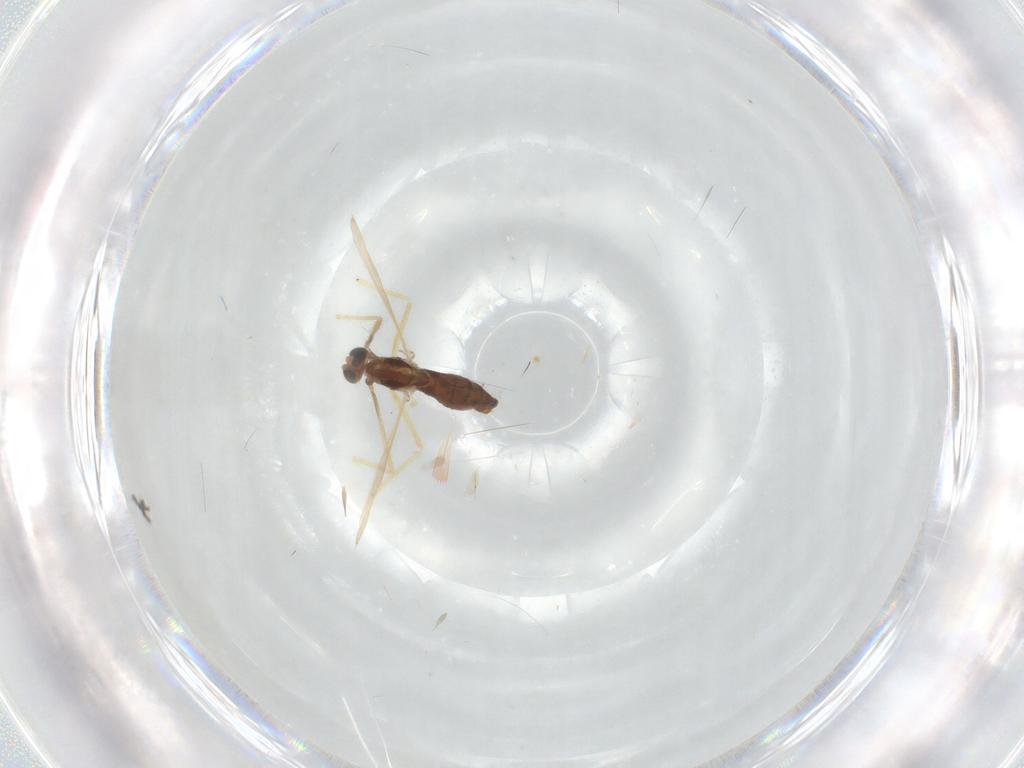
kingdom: Animalia
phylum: Arthropoda
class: Insecta
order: Diptera
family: Chironomidae
